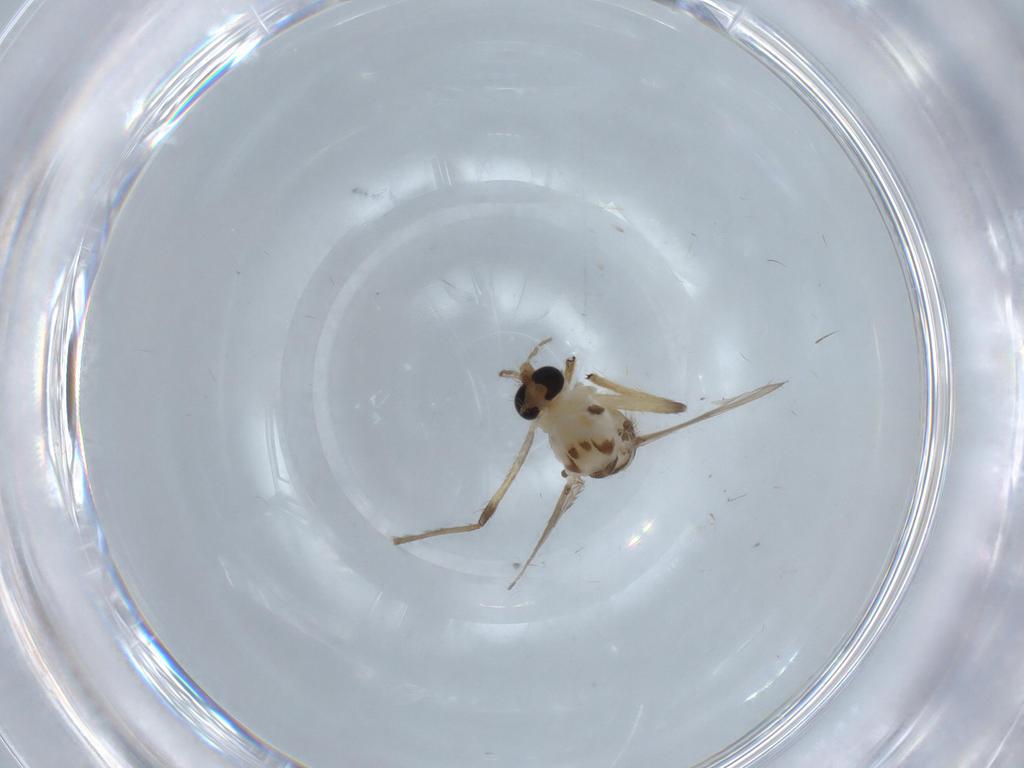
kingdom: Animalia
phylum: Arthropoda
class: Insecta
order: Diptera
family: Chironomidae
